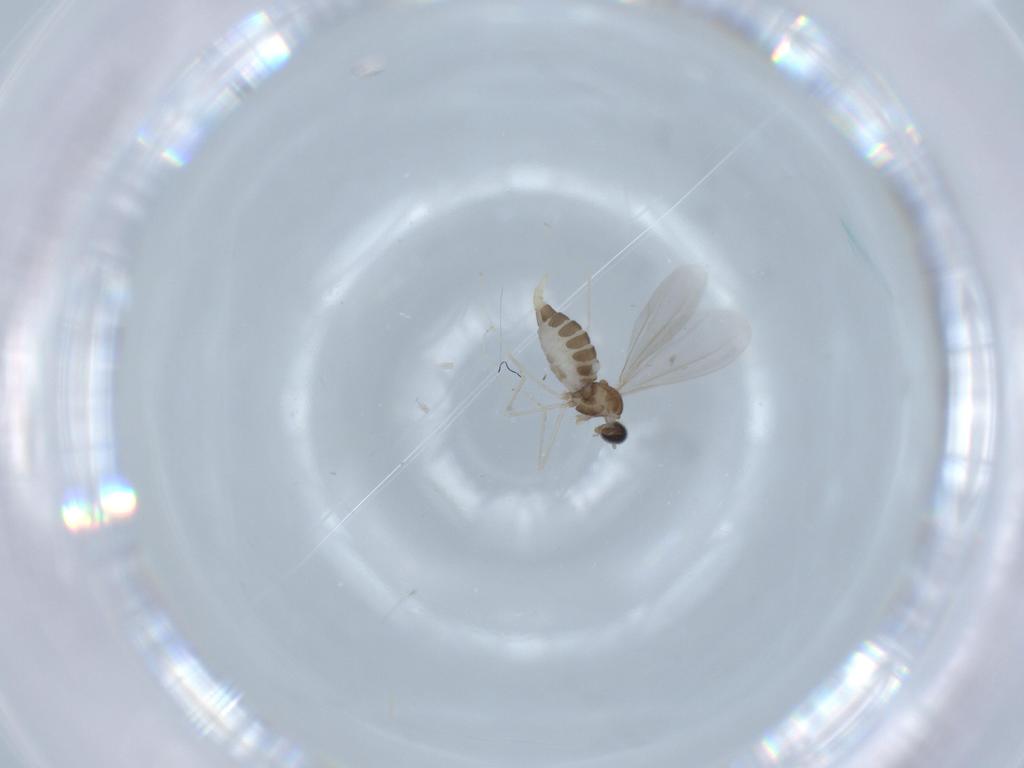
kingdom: Animalia
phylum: Arthropoda
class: Insecta
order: Diptera
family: Cecidomyiidae
